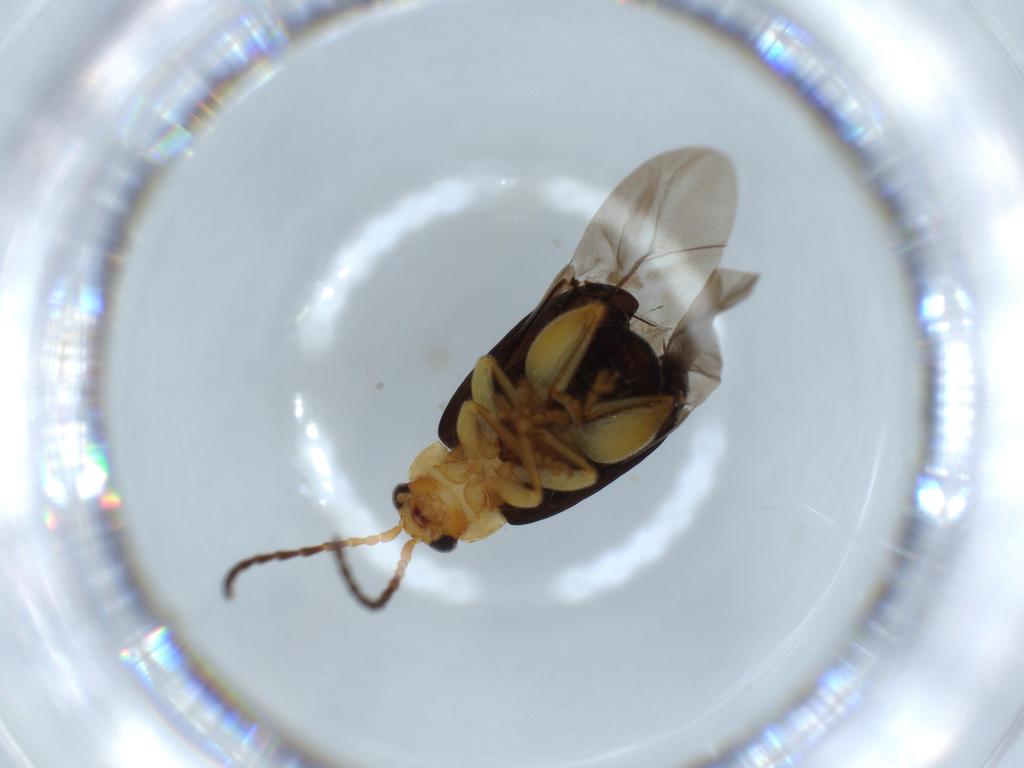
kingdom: Animalia
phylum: Arthropoda
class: Insecta
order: Coleoptera
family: Chrysomelidae
